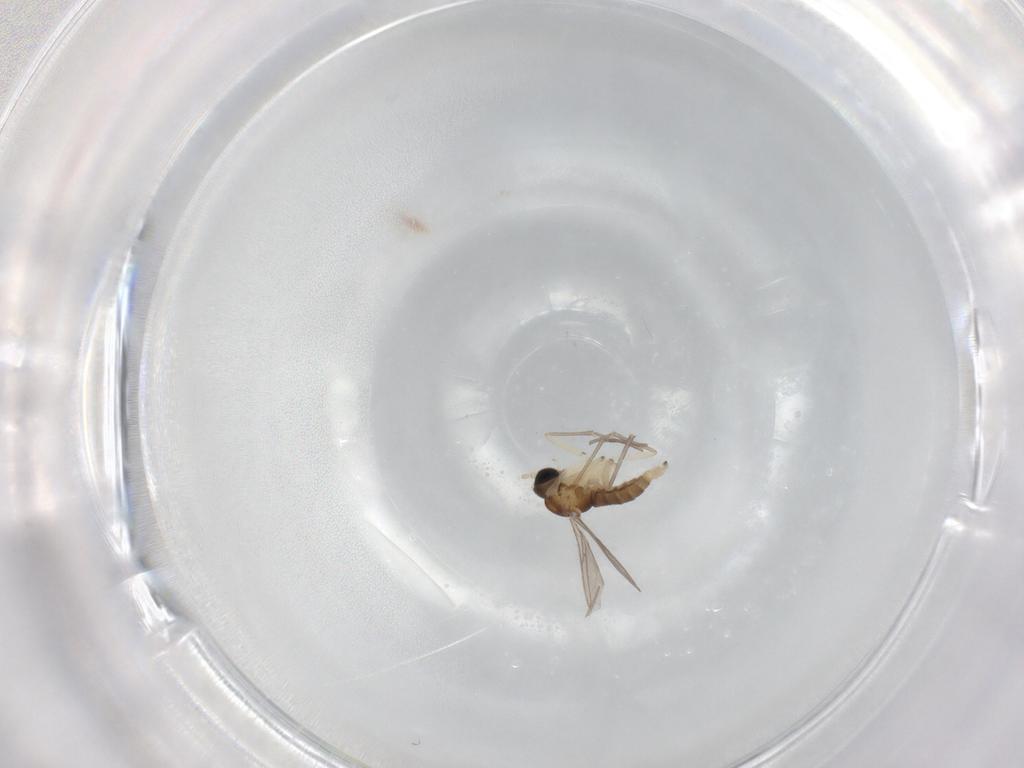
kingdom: Animalia
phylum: Arthropoda
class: Insecta
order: Diptera
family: Sciaridae
